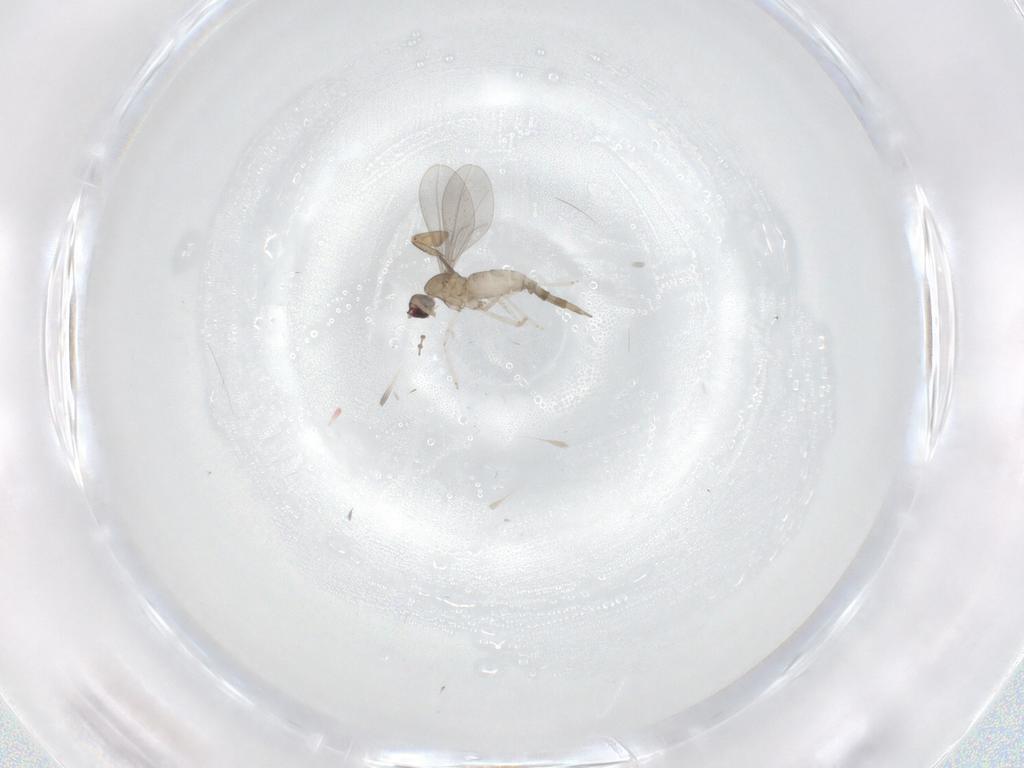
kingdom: Animalia
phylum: Arthropoda
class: Insecta
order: Diptera
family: Cecidomyiidae
